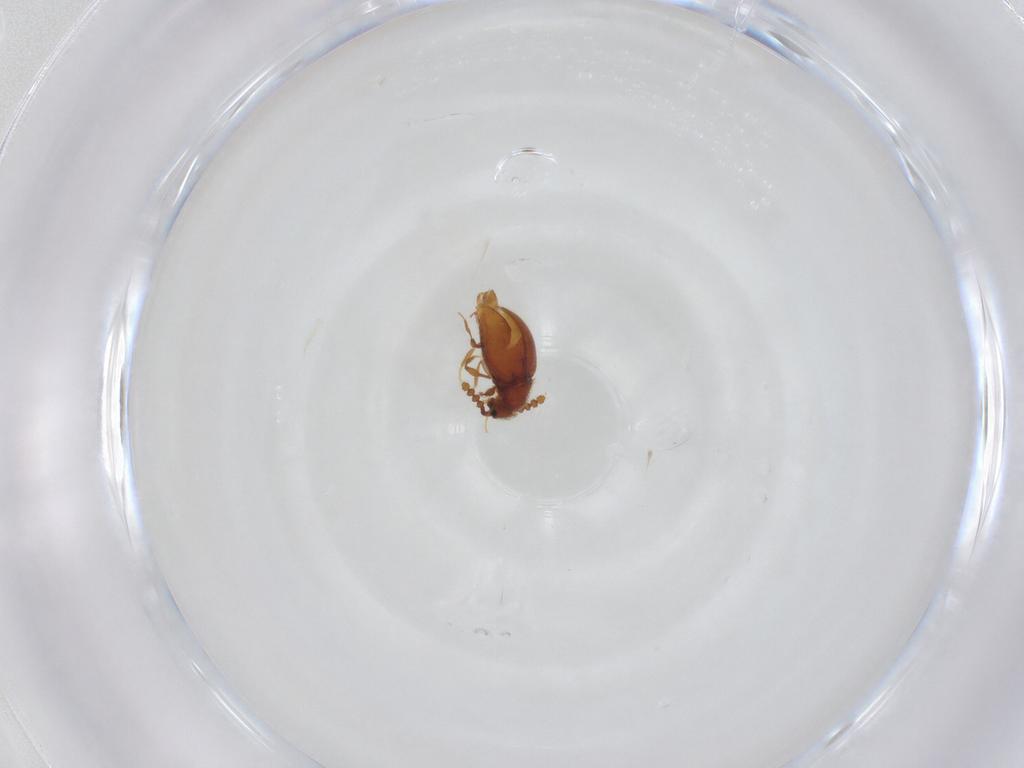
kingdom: Animalia
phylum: Arthropoda
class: Insecta
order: Coleoptera
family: Staphylinidae
